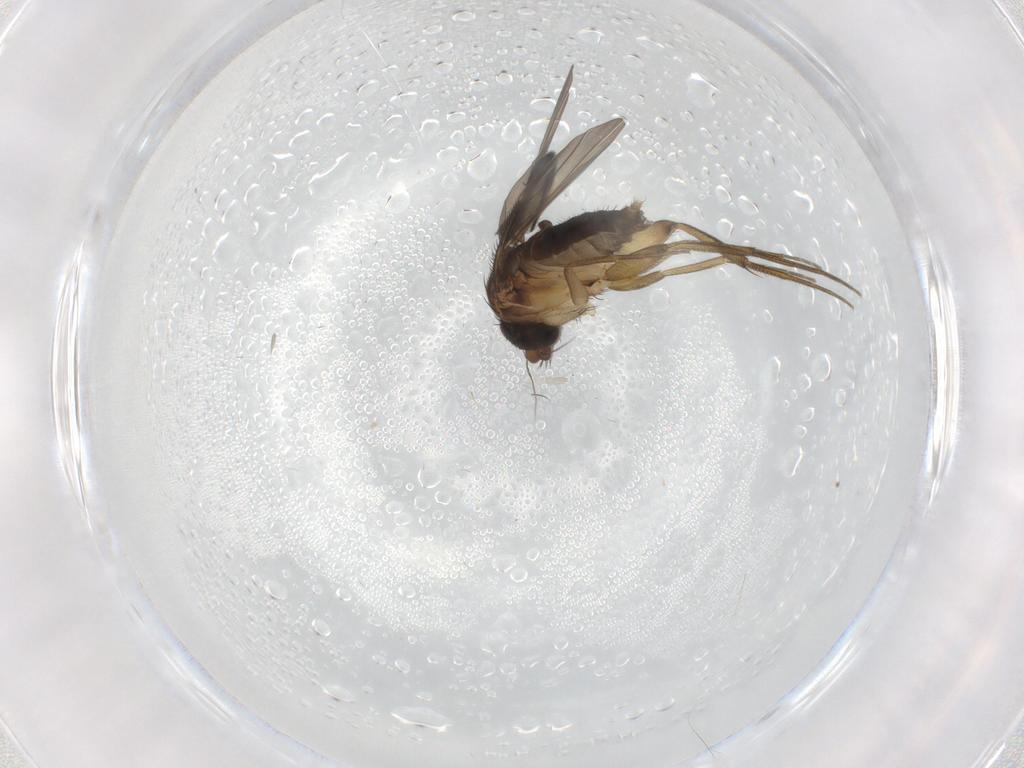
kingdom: Animalia
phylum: Arthropoda
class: Insecta
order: Diptera
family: Phoridae
